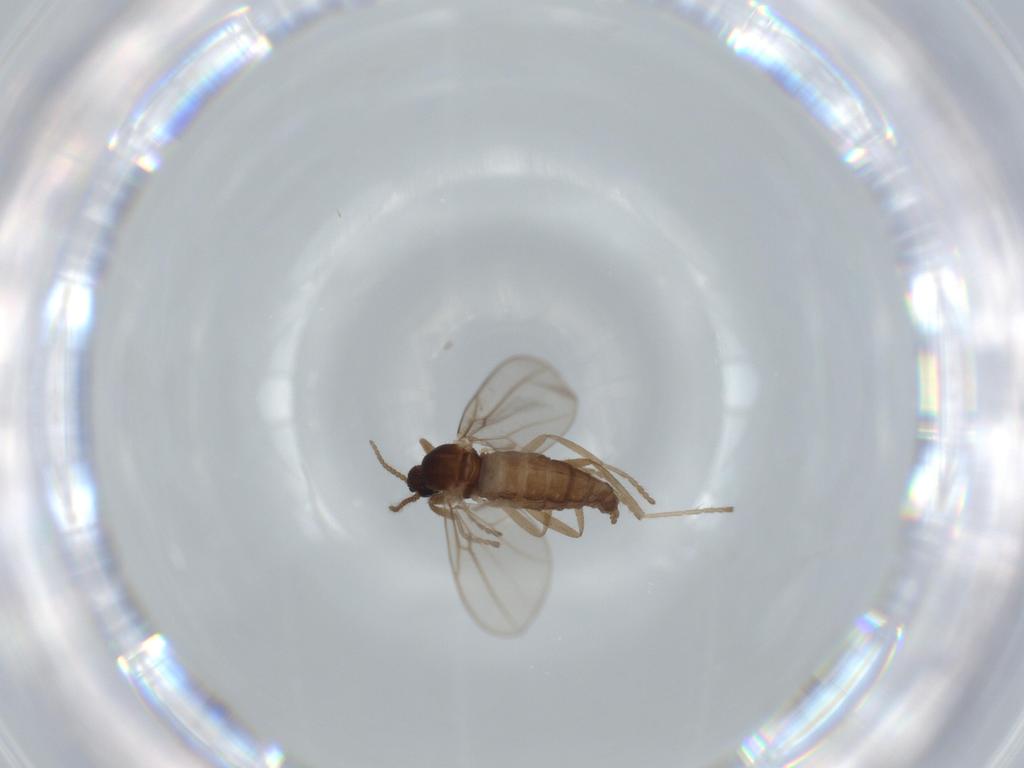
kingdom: Animalia
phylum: Arthropoda
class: Insecta
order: Diptera
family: Cecidomyiidae
